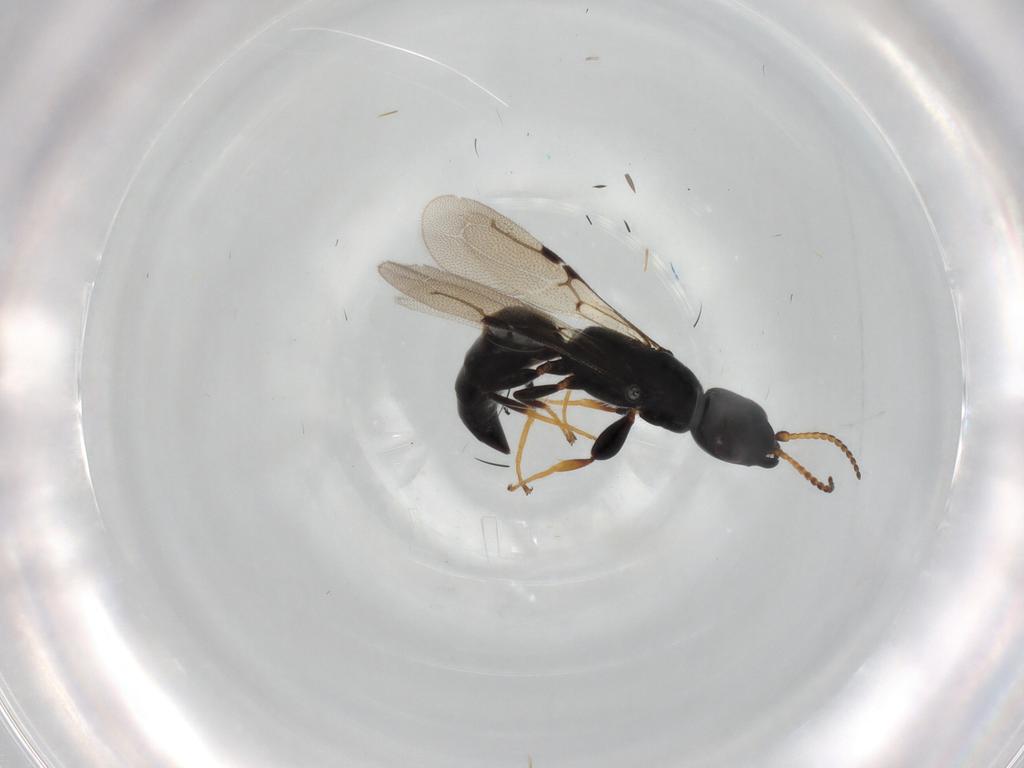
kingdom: Animalia
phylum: Arthropoda
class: Insecta
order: Hymenoptera
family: Bethylidae
